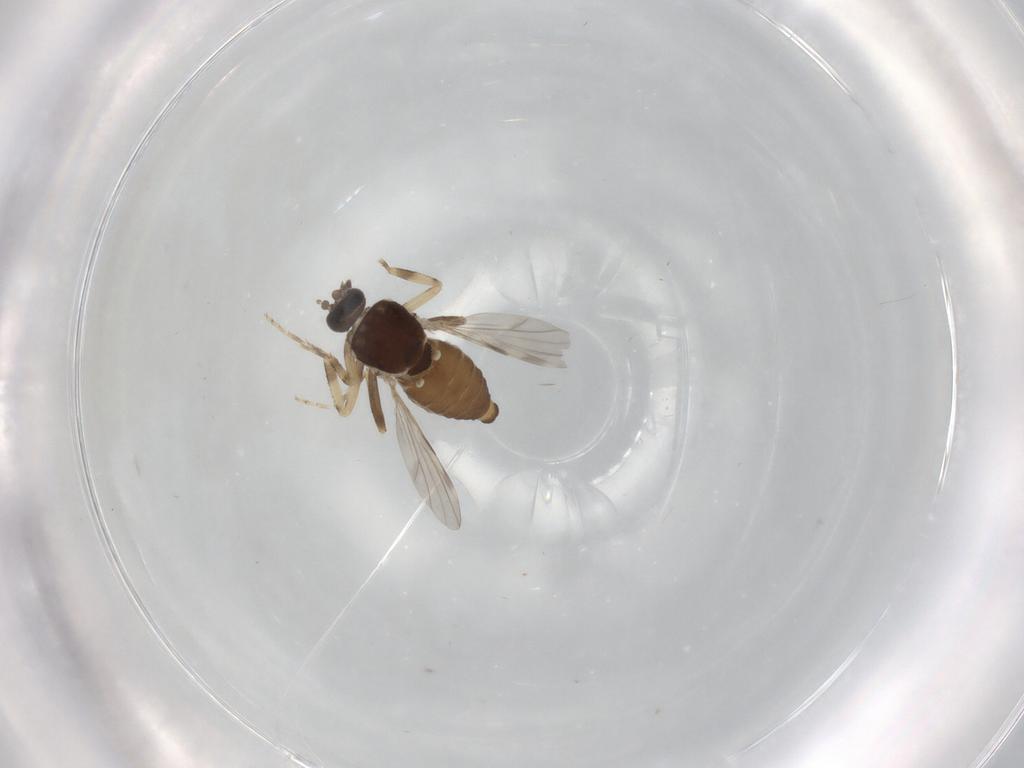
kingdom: Animalia
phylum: Arthropoda
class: Insecta
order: Diptera
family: Ceratopogonidae
